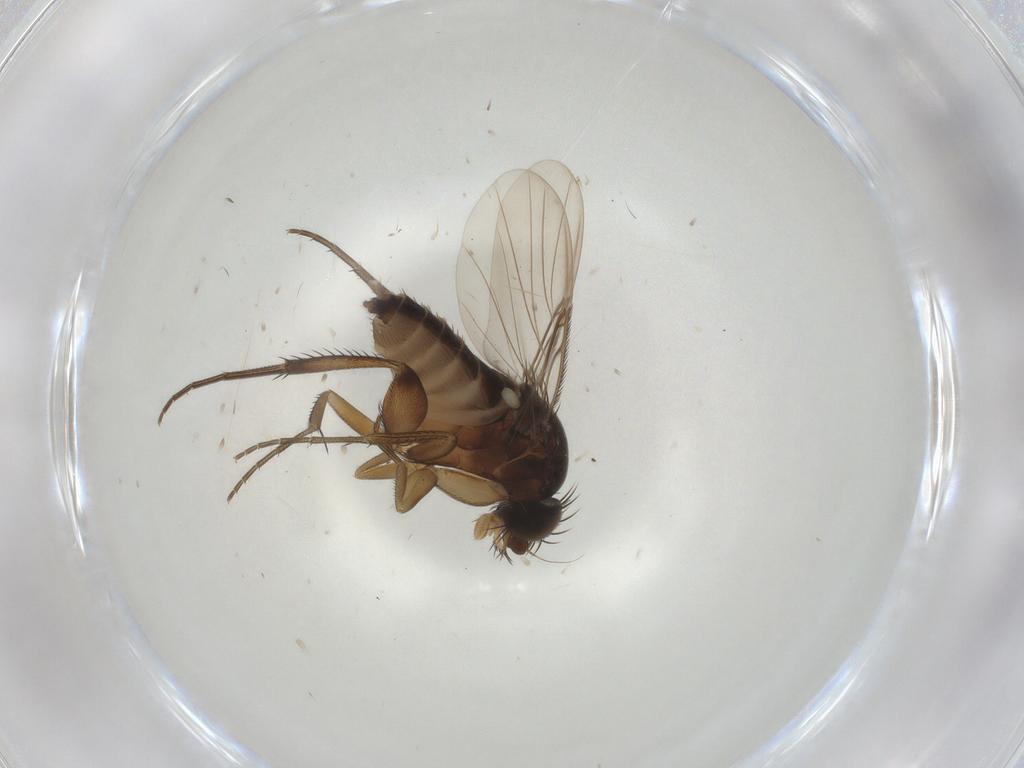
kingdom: Animalia
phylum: Arthropoda
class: Insecta
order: Diptera
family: Phoridae
